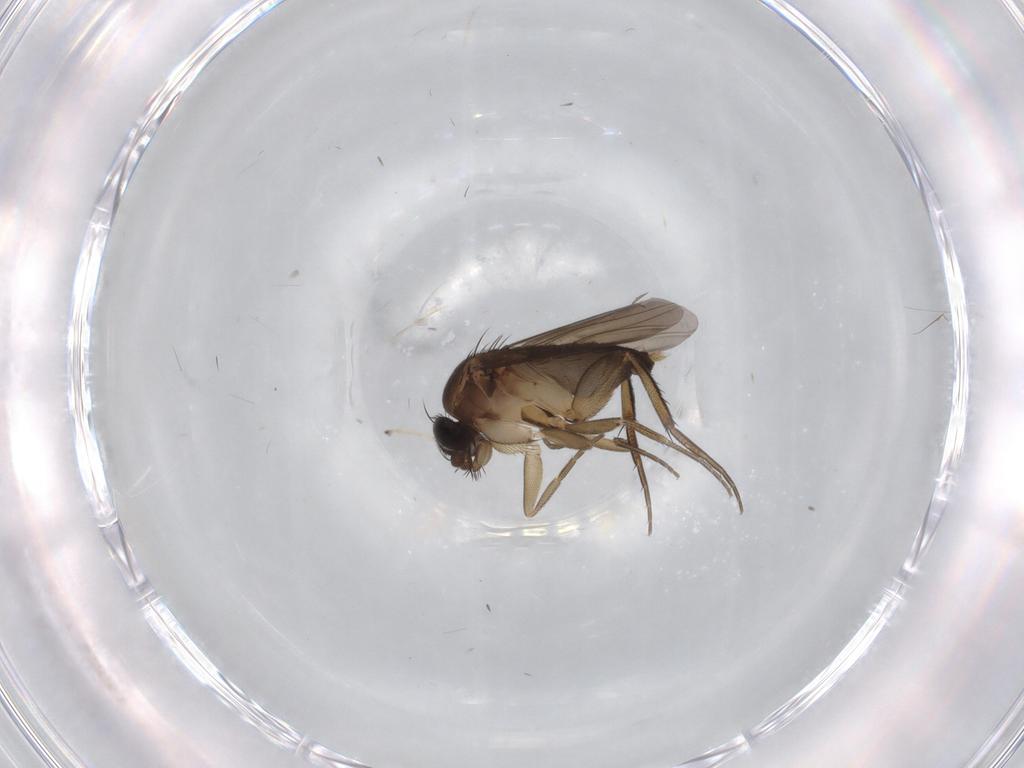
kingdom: Animalia
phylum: Arthropoda
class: Insecta
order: Diptera
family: Phoridae
